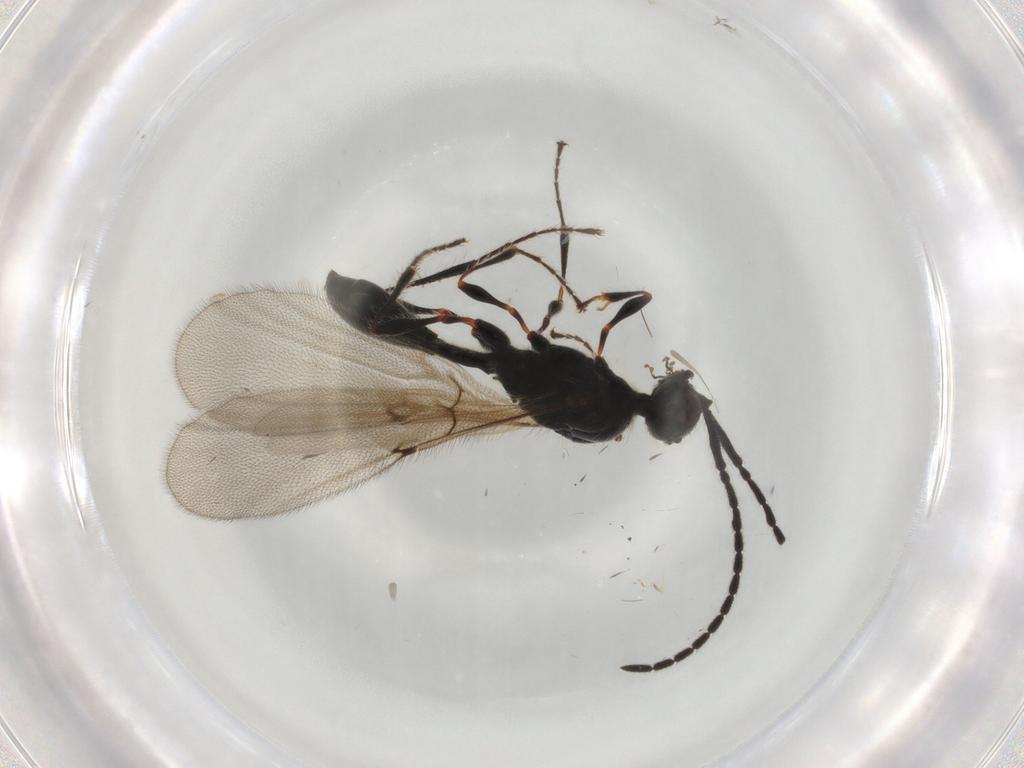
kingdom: Animalia
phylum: Arthropoda
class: Insecta
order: Hymenoptera
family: Diapriidae
